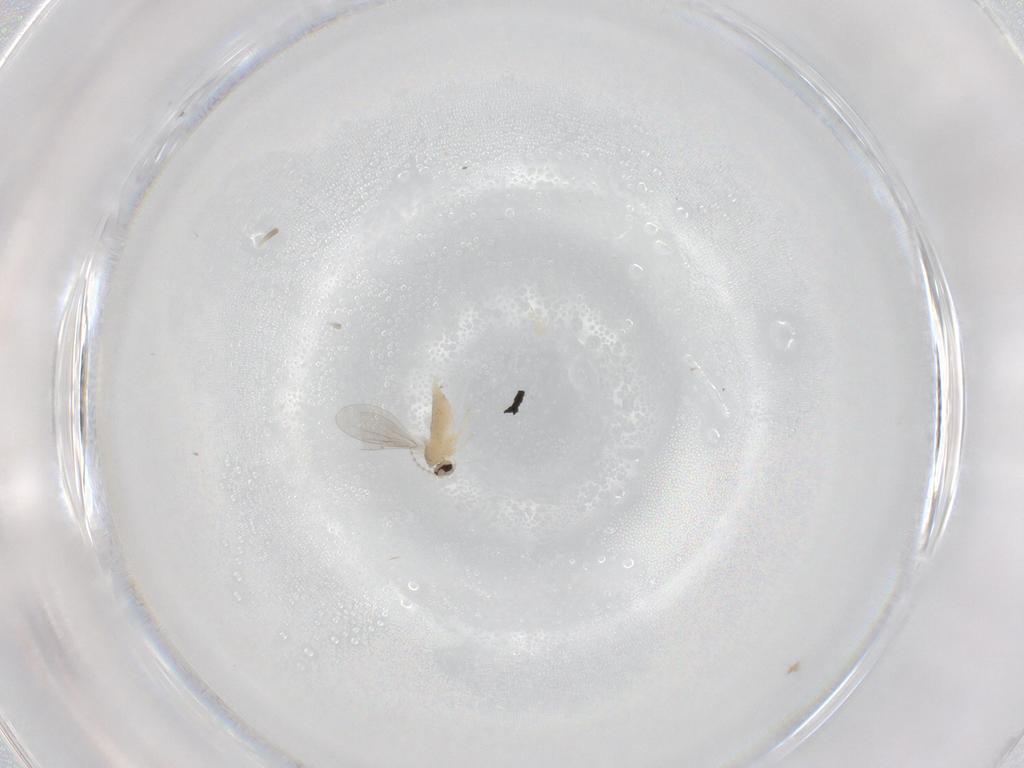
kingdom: Animalia
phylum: Arthropoda
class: Insecta
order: Diptera
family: Cecidomyiidae
